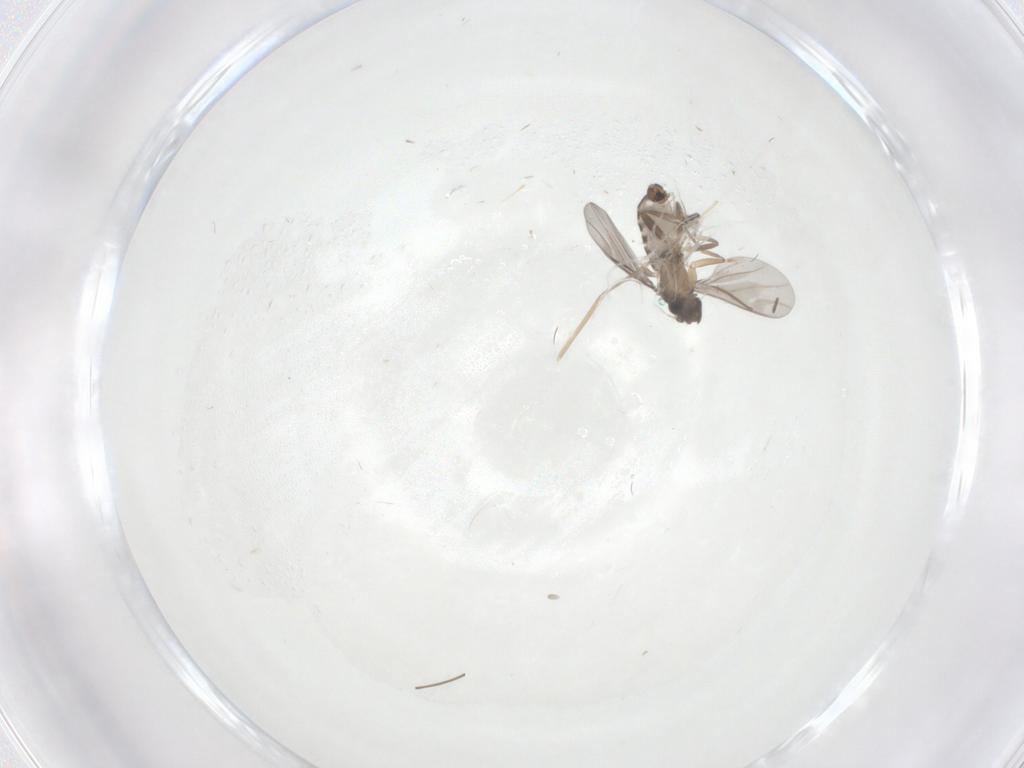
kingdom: Animalia
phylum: Arthropoda
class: Insecta
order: Diptera
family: Cecidomyiidae
